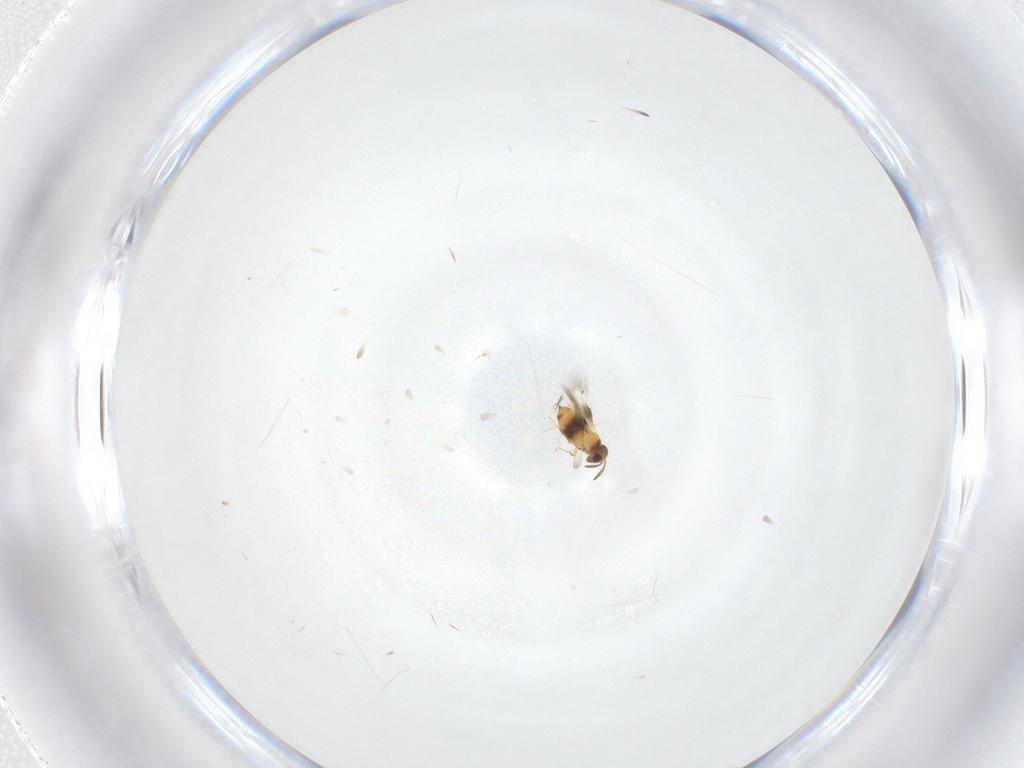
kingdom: Animalia
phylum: Arthropoda
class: Insecta
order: Hymenoptera
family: Signiphoridae
